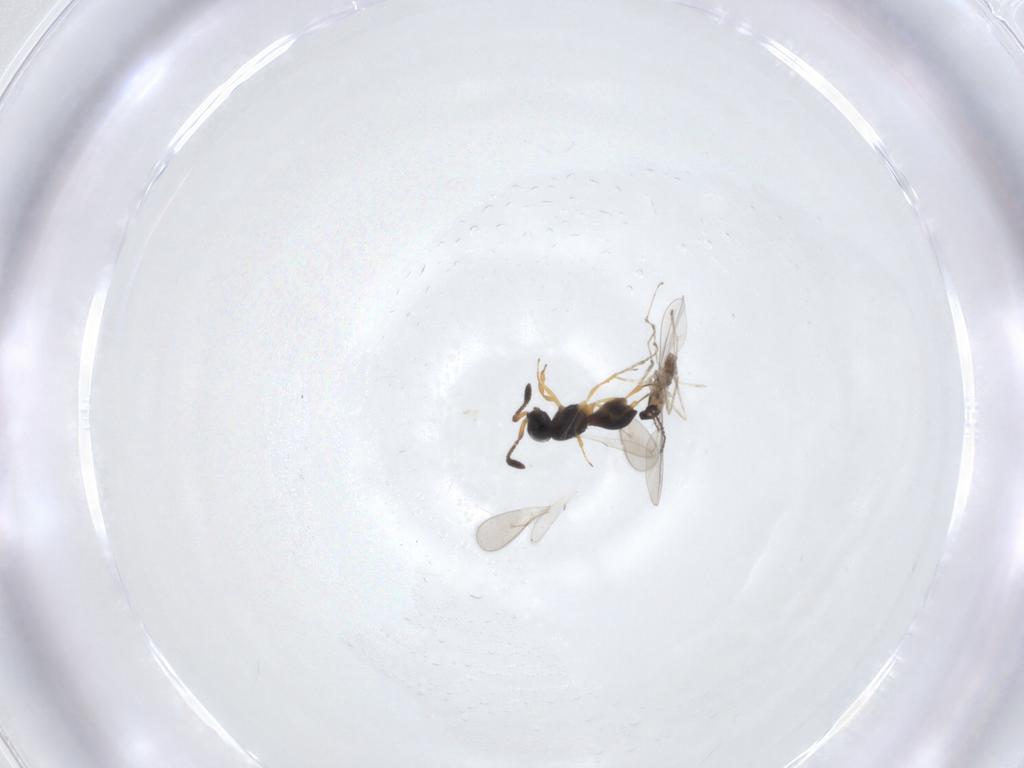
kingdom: Animalia
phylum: Arthropoda
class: Insecta
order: Hymenoptera
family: Scelionidae
